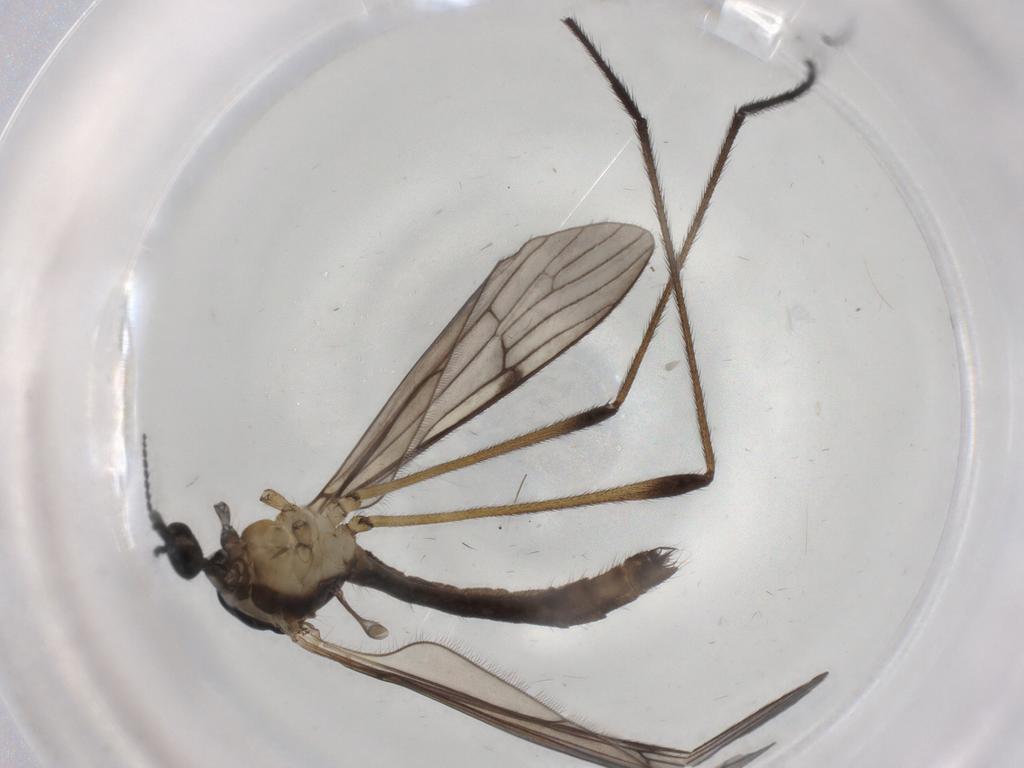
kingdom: Animalia
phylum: Arthropoda
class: Insecta
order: Diptera
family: Limoniidae
